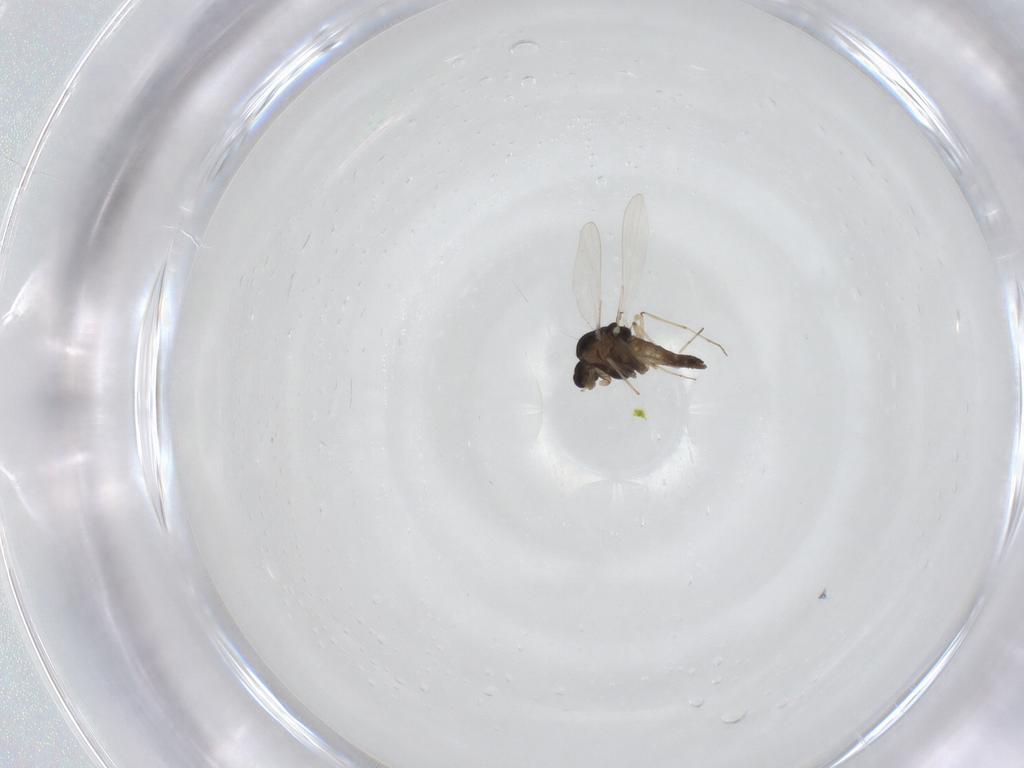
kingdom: Animalia
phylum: Arthropoda
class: Insecta
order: Diptera
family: Chironomidae
